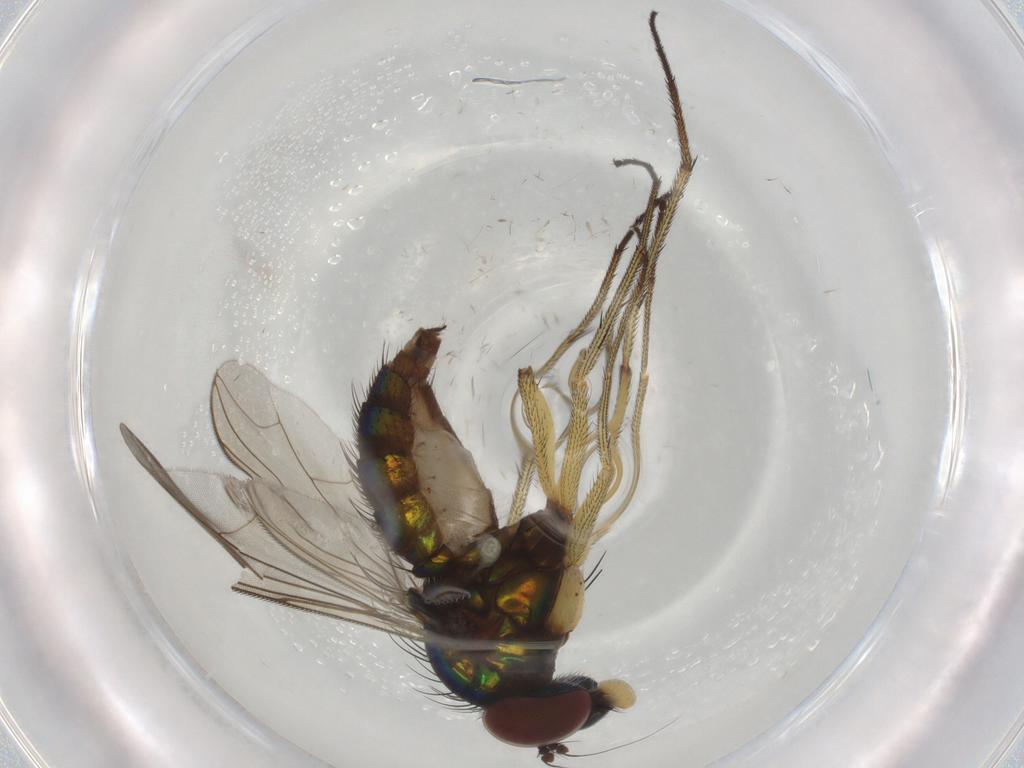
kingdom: Animalia
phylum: Arthropoda
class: Insecta
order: Diptera
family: Dolichopodidae
